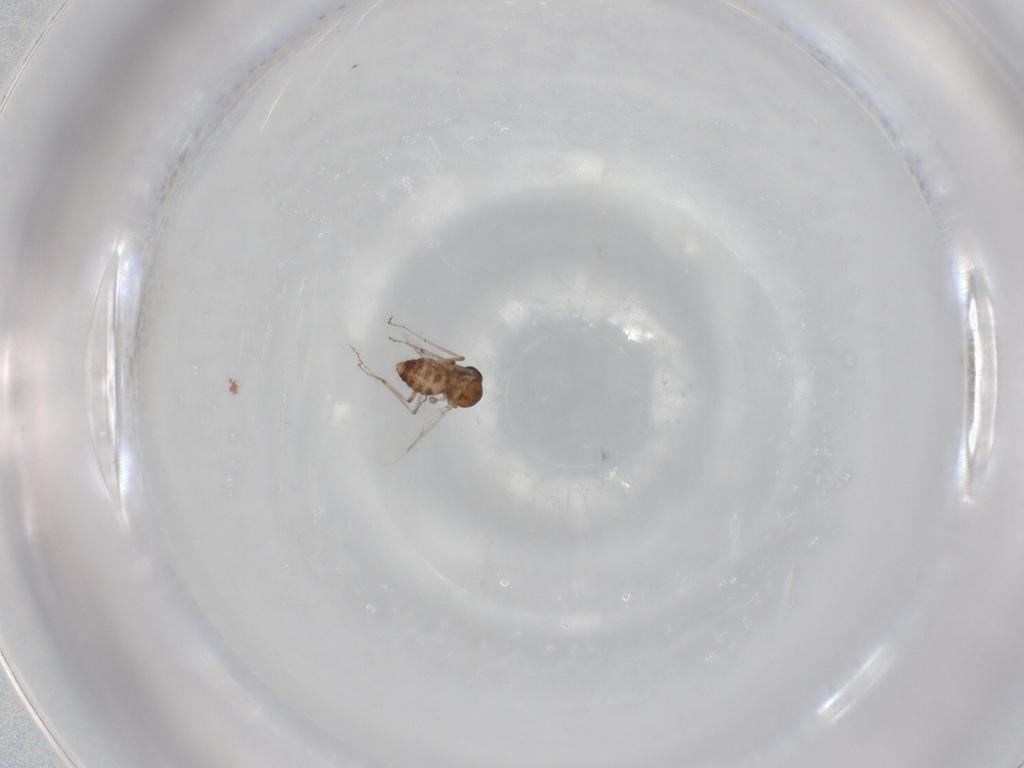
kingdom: Animalia
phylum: Arthropoda
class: Insecta
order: Diptera
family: Ceratopogonidae
